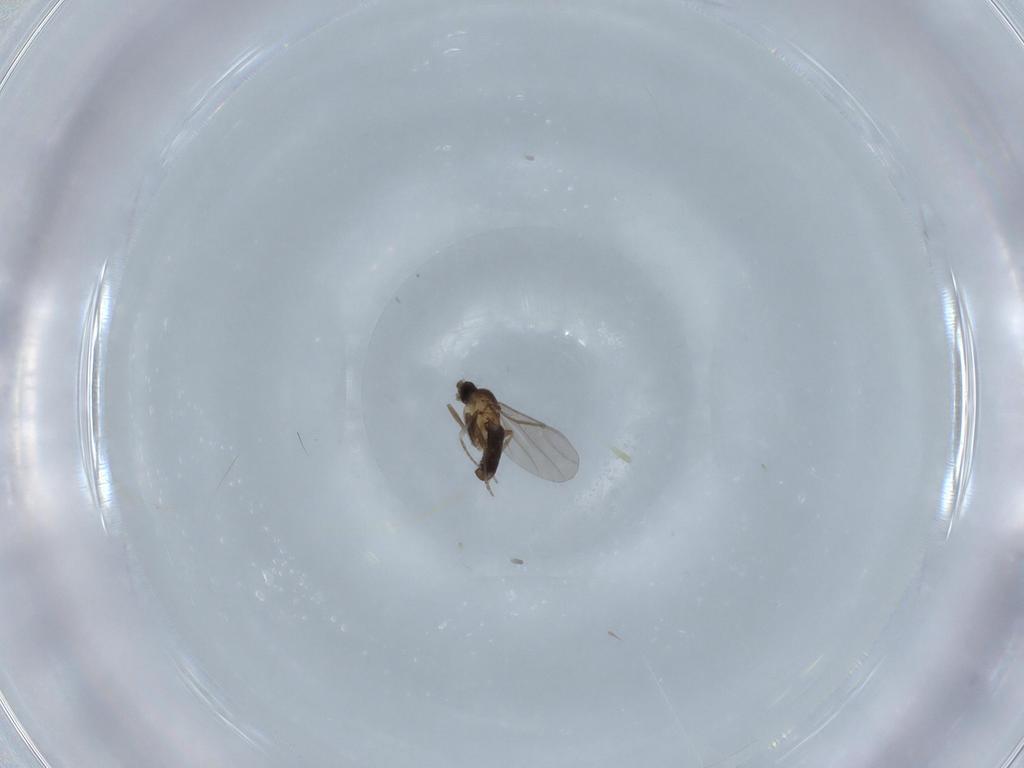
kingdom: Animalia
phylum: Arthropoda
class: Insecta
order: Diptera
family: Phoridae
